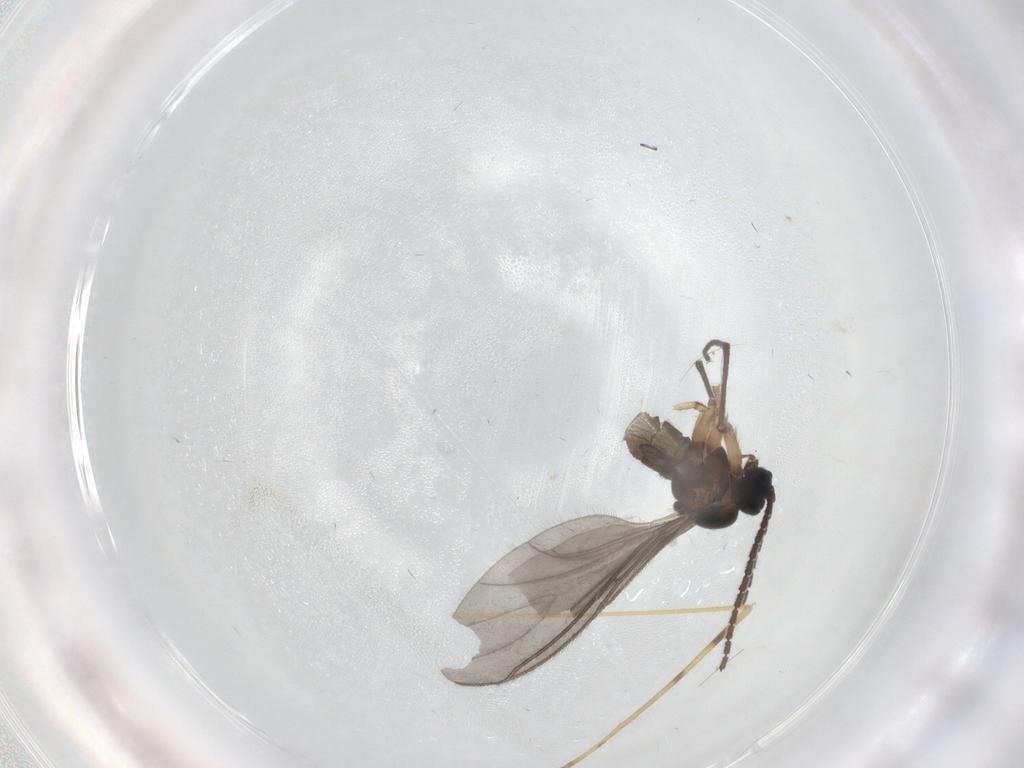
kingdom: Animalia
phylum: Arthropoda
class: Insecta
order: Diptera
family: Sciaridae
